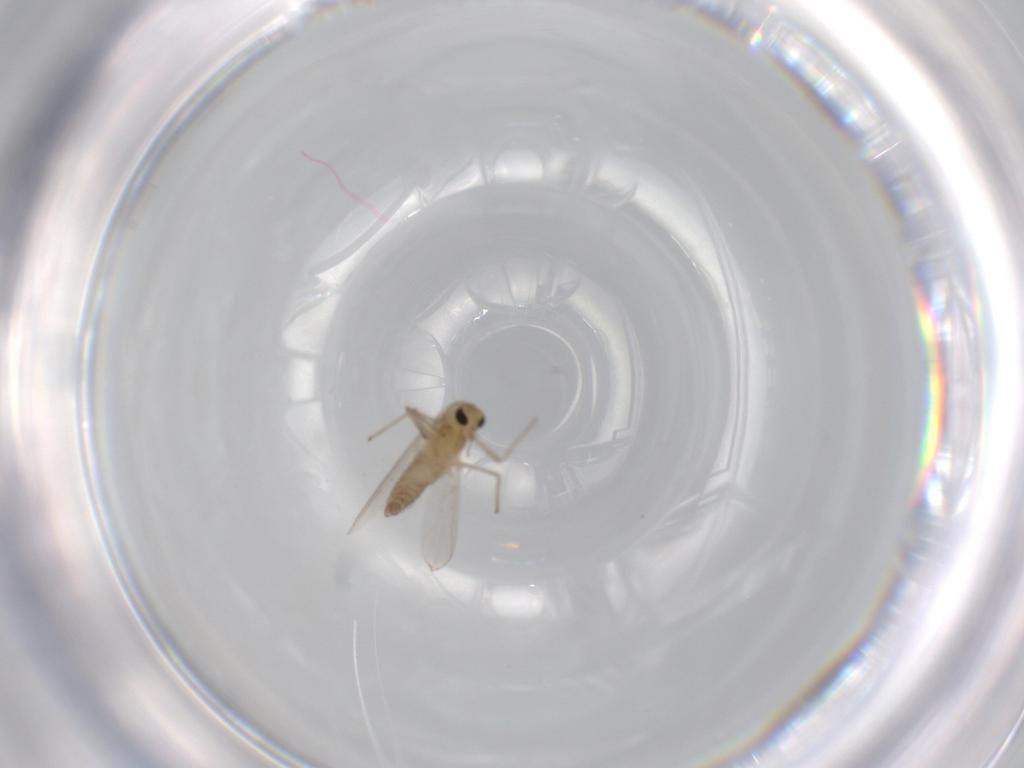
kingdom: Animalia
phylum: Arthropoda
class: Insecta
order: Diptera
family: Chironomidae
